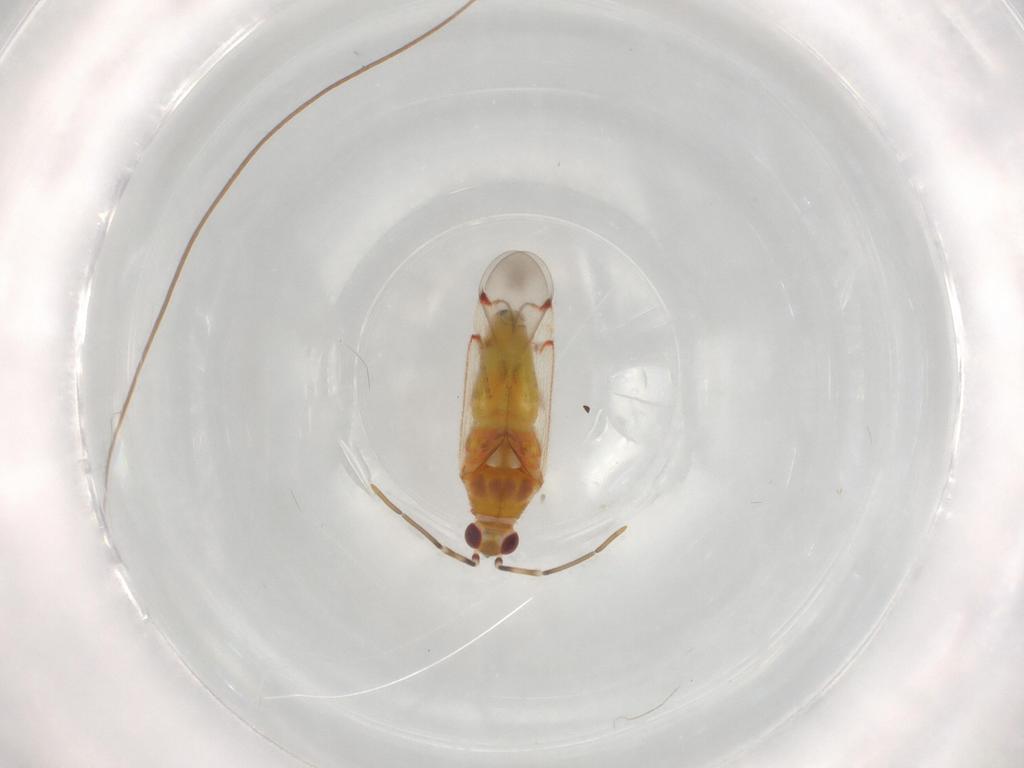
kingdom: Animalia
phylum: Arthropoda
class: Insecta
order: Hemiptera
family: Miridae
